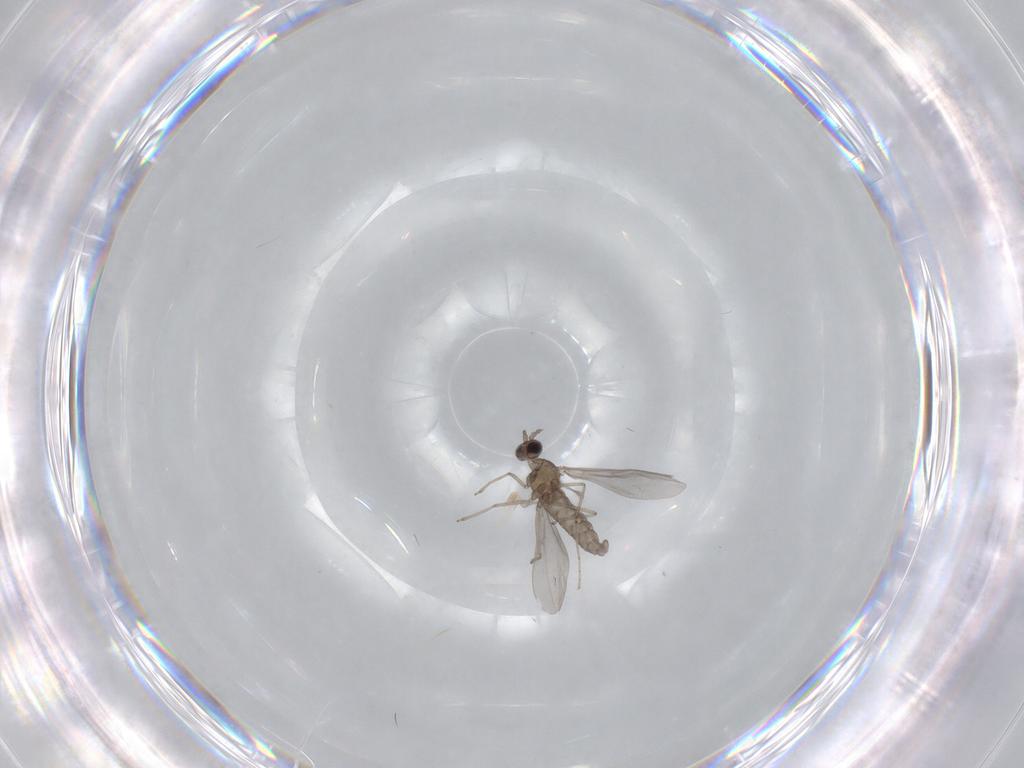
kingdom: Animalia
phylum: Arthropoda
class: Insecta
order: Diptera
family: Cecidomyiidae
